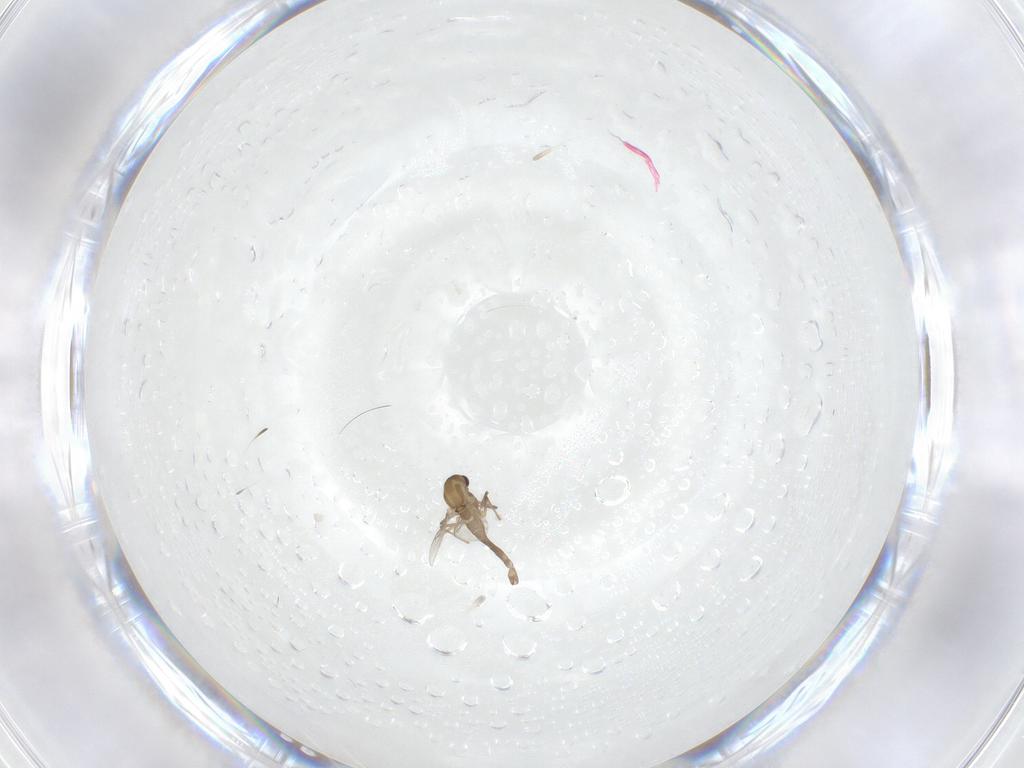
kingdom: Animalia
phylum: Arthropoda
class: Insecta
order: Diptera
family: Chironomidae
